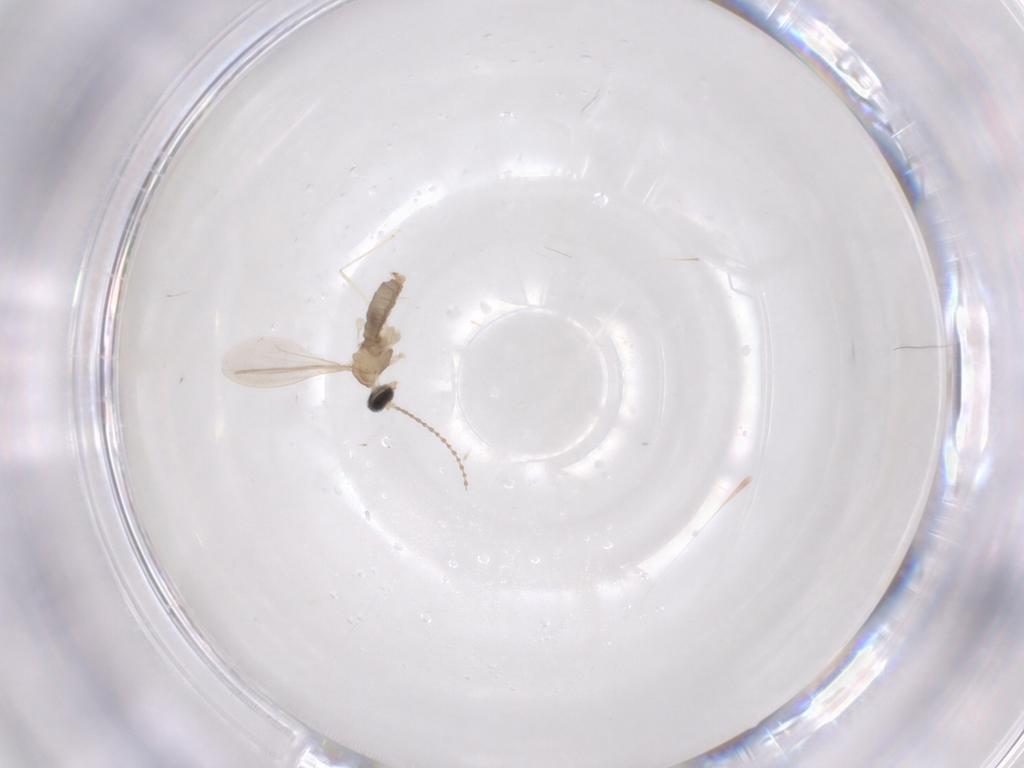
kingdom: Animalia
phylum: Arthropoda
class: Insecta
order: Diptera
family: Cecidomyiidae
